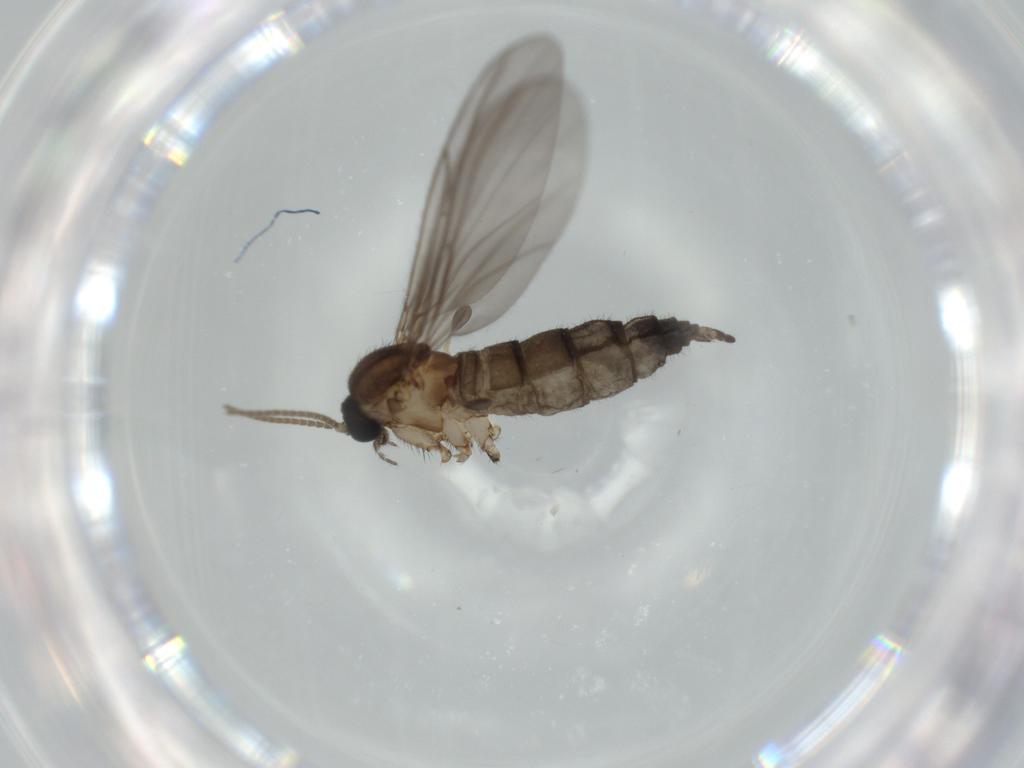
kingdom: Animalia
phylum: Arthropoda
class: Insecta
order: Diptera
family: Sciaridae
